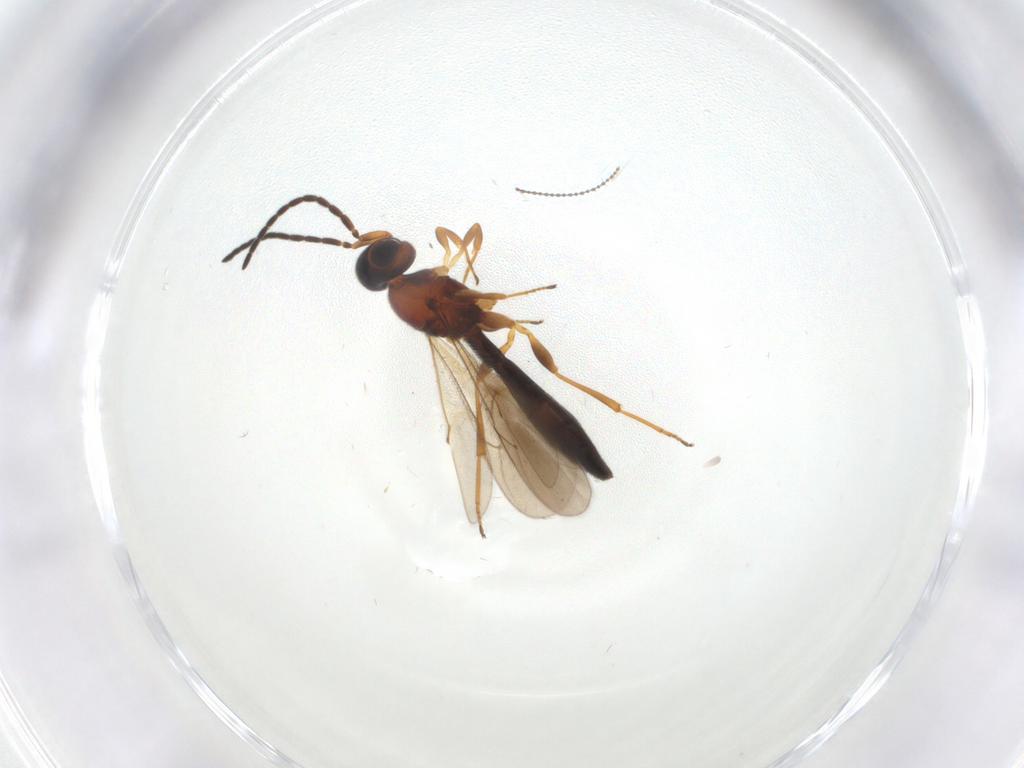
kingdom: Animalia
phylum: Arthropoda
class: Insecta
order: Hymenoptera
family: Scelionidae
